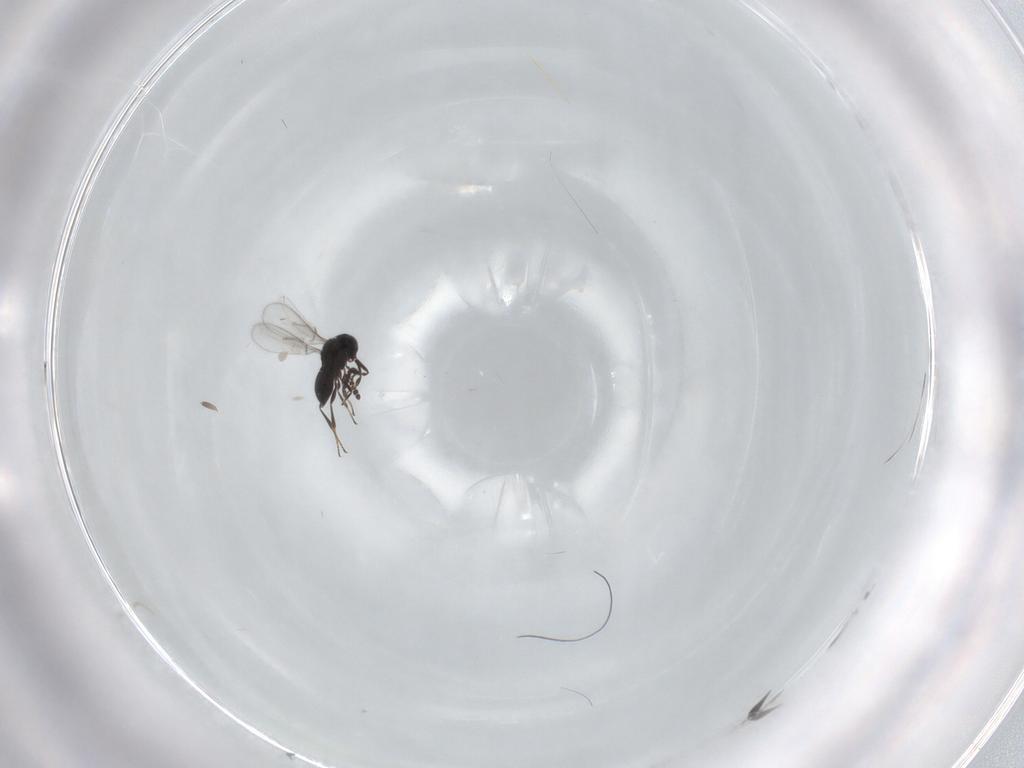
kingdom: Animalia
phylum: Arthropoda
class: Insecta
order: Hymenoptera
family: Scelionidae
